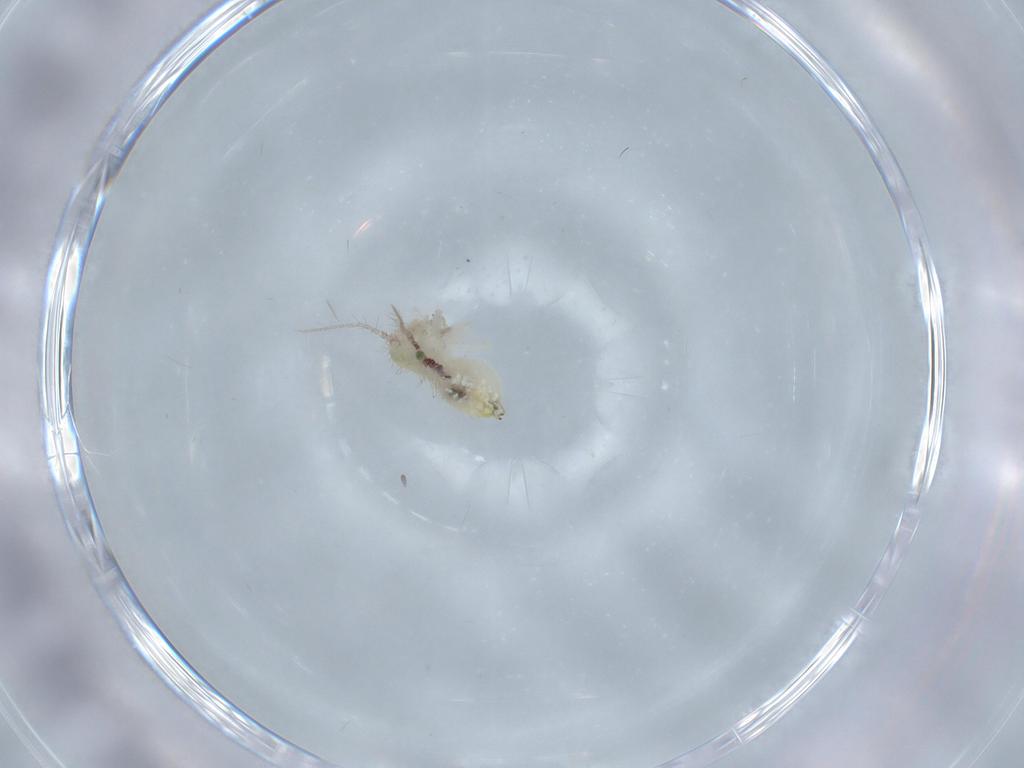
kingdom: Animalia
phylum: Arthropoda
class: Insecta
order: Psocodea
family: Pseudocaeciliidae
